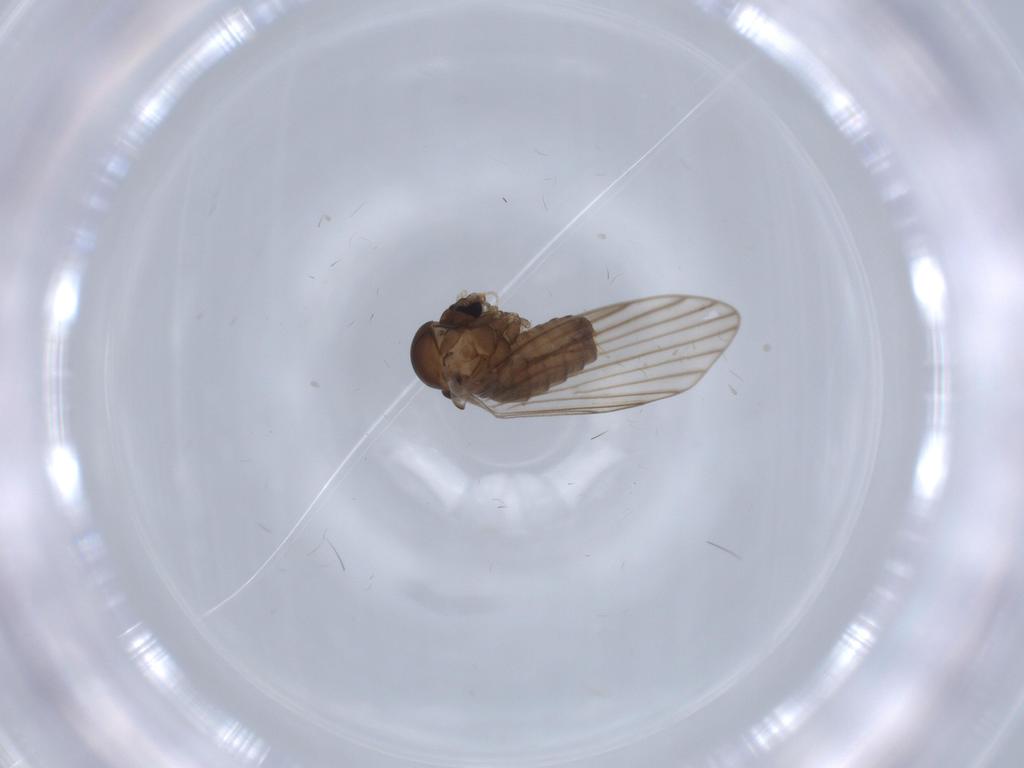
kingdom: Animalia
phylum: Arthropoda
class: Insecta
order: Diptera
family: Psychodidae
